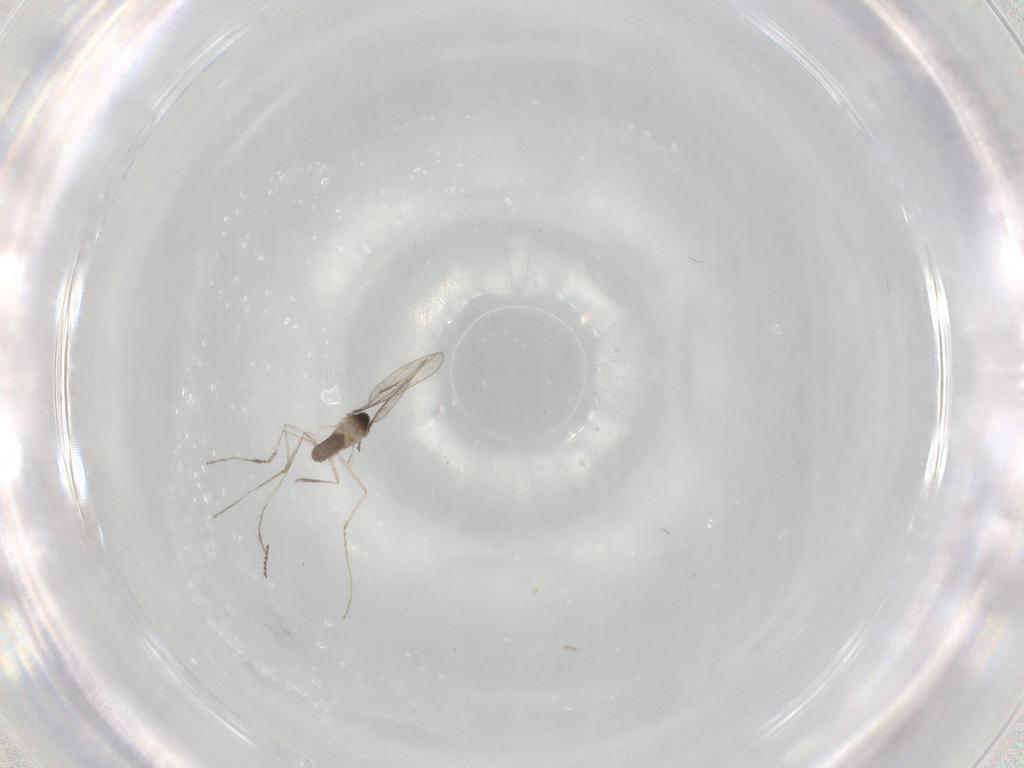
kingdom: Animalia
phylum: Arthropoda
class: Insecta
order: Diptera
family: Cecidomyiidae
